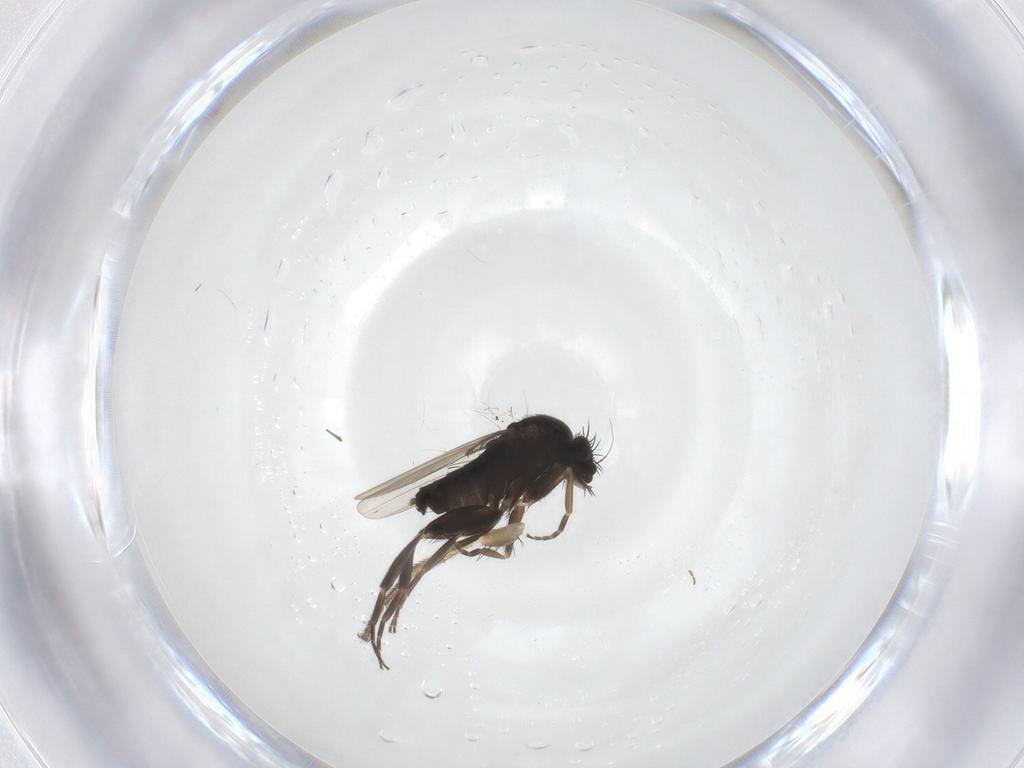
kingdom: Animalia
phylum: Arthropoda
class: Insecta
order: Diptera
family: Phoridae
